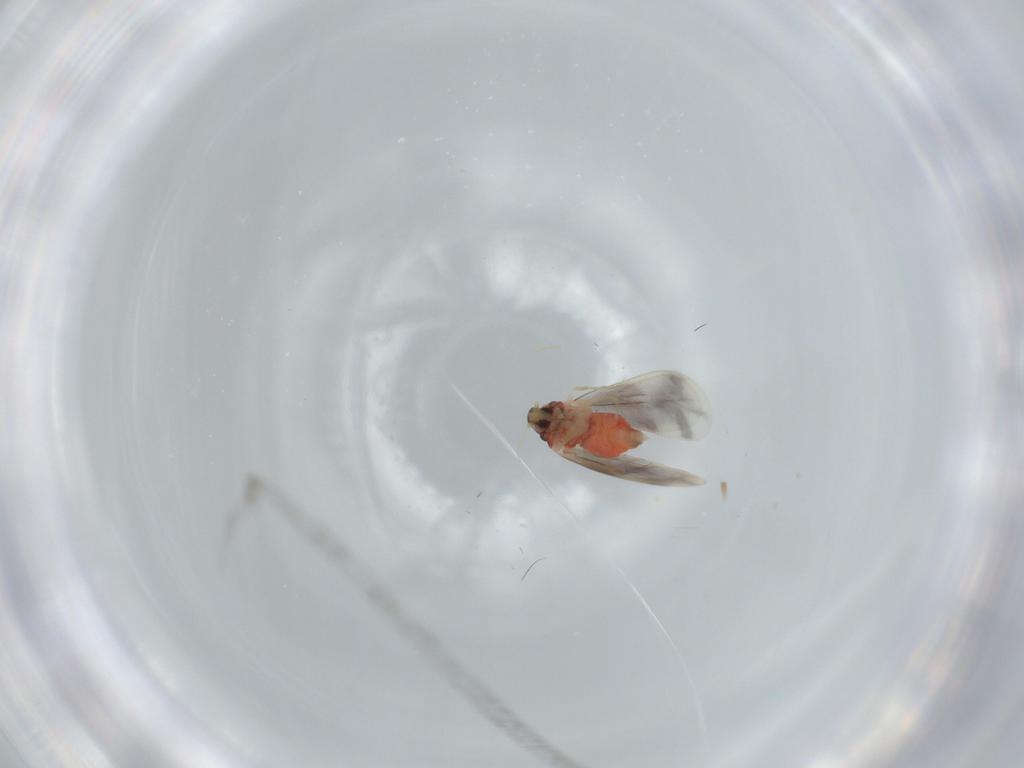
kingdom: Animalia
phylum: Arthropoda
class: Insecta
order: Hemiptera
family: Aleyrodidae
